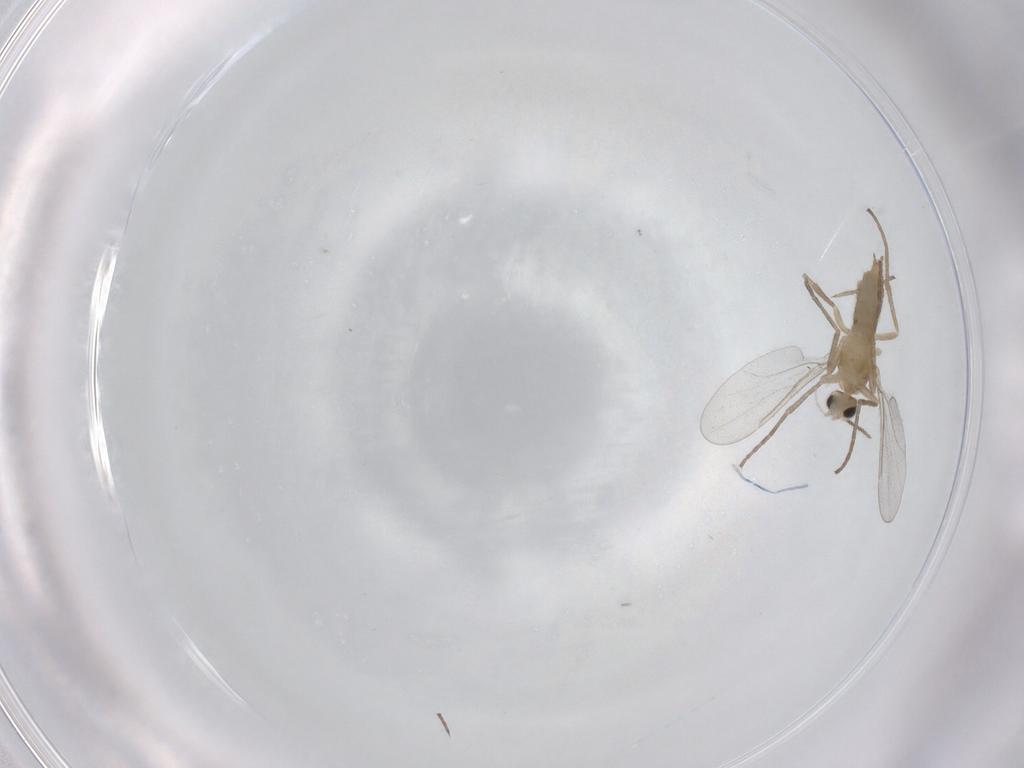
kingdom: Animalia
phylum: Arthropoda
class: Insecta
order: Diptera
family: Cecidomyiidae
